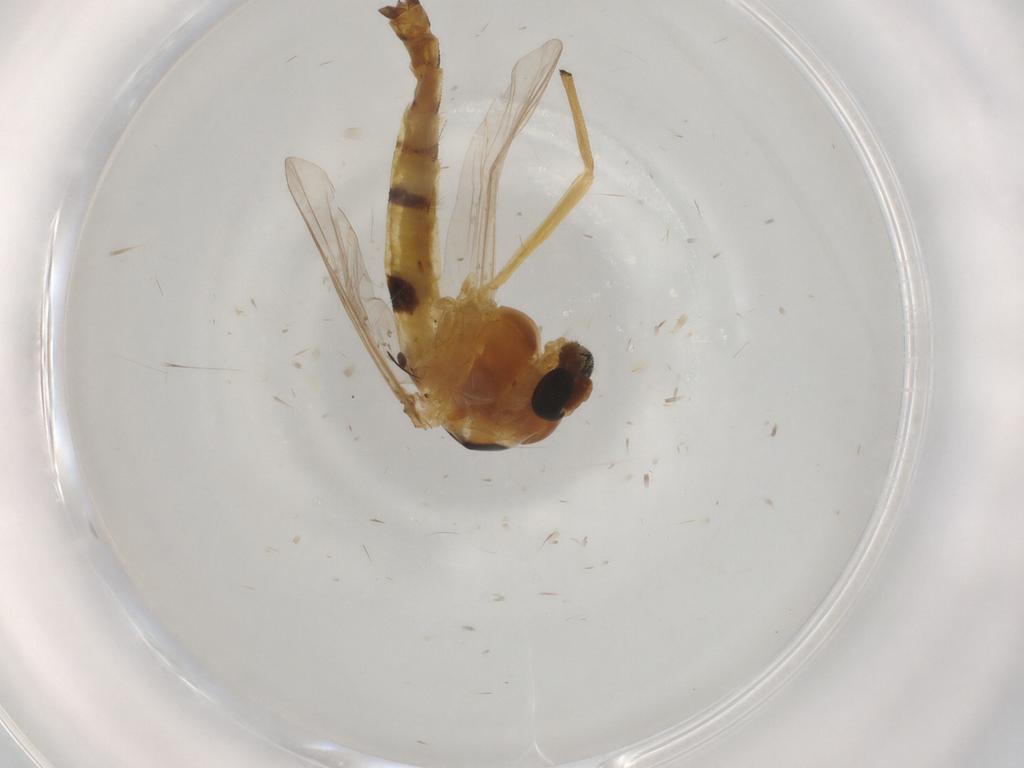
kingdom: Animalia
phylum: Arthropoda
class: Insecta
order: Diptera
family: Chironomidae
